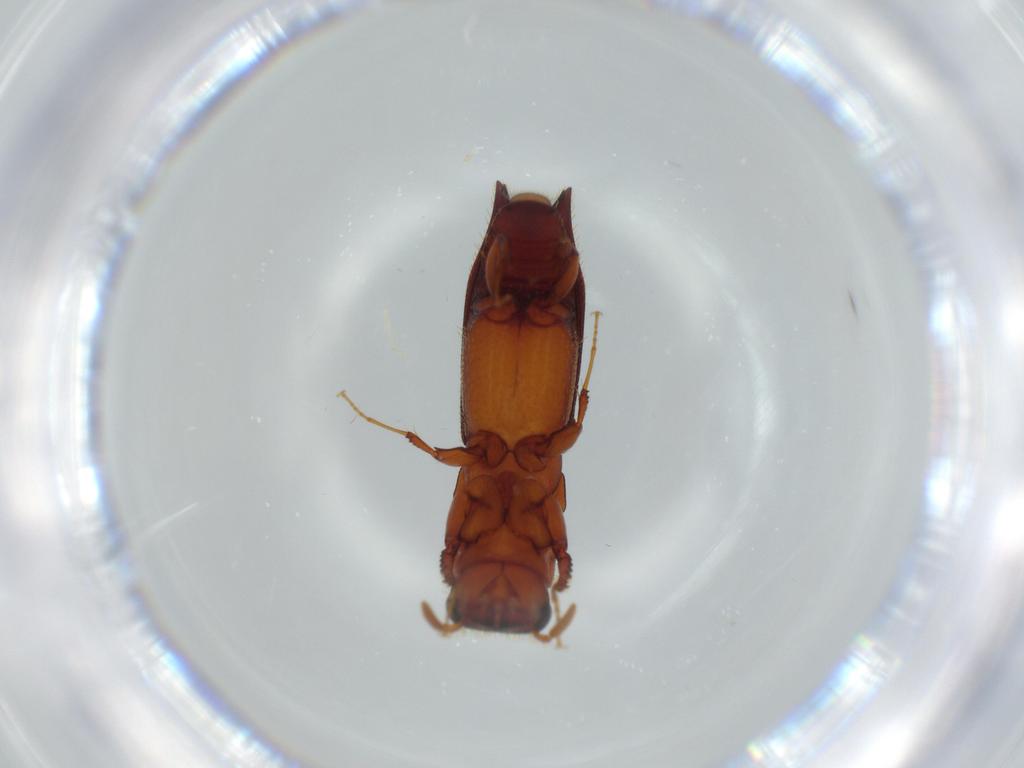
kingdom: Animalia
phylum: Arthropoda
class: Insecta
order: Coleoptera
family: Curculionidae
